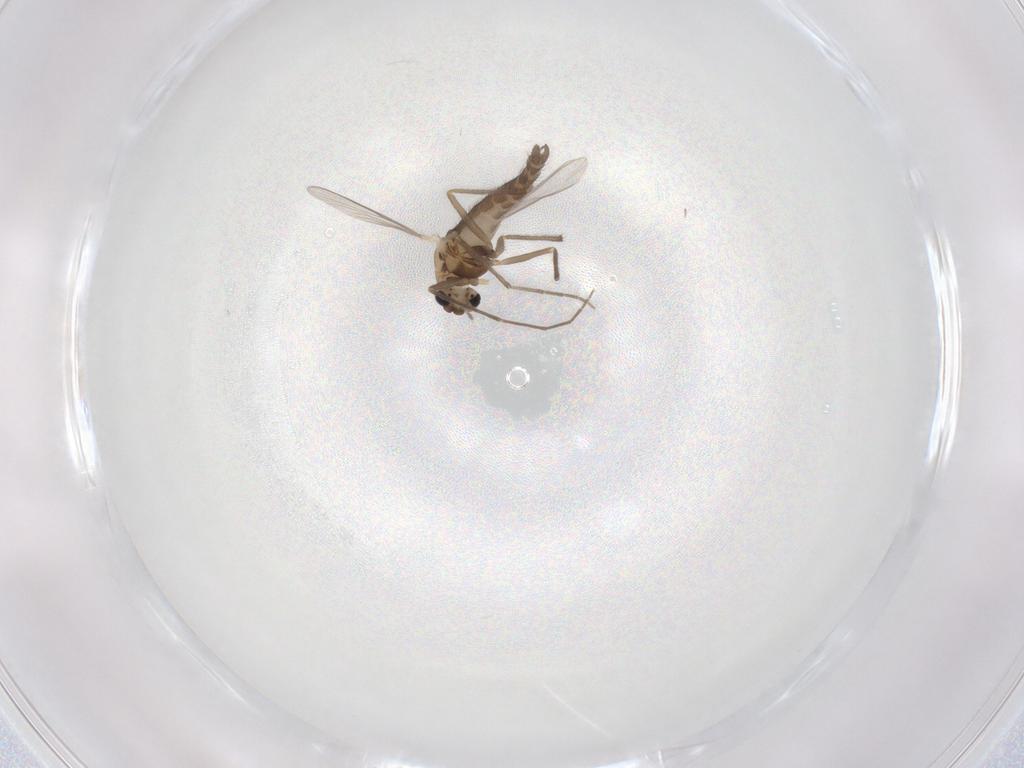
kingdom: Animalia
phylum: Arthropoda
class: Insecta
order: Diptera
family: Chironomidae
